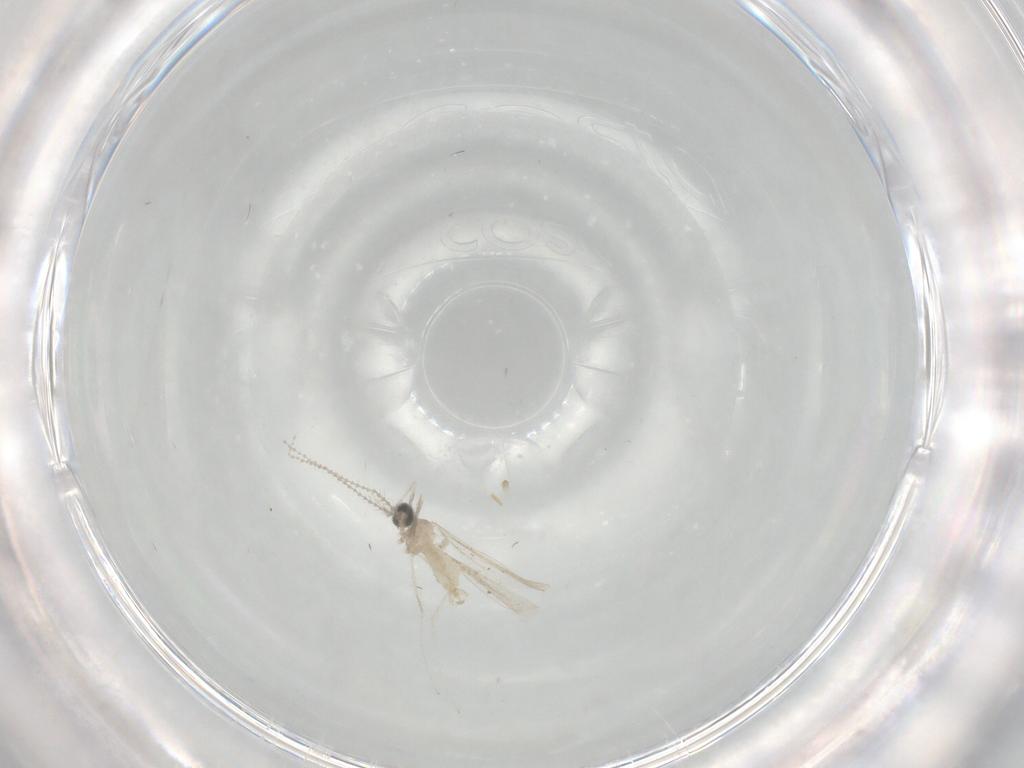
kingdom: Animalia
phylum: Arthropoda
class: Insecta
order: Diptera
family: Cecidomyiidae
